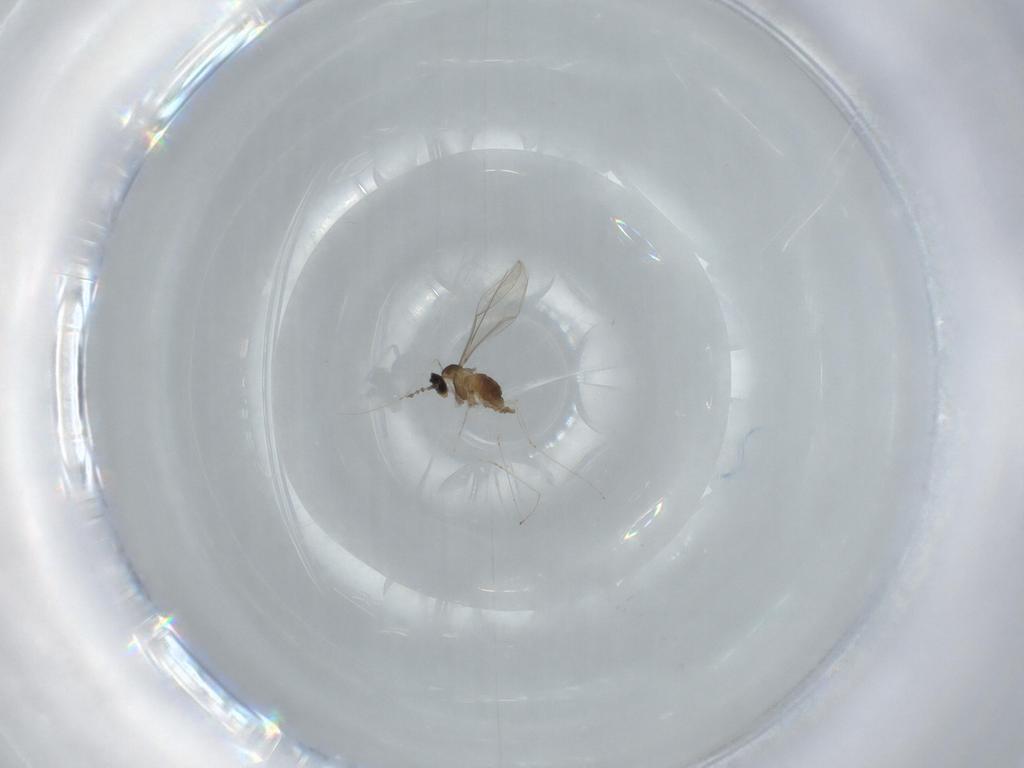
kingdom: Animalia
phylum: Arthropoda
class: Insecta
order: Diptera
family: Cecidomyiidae
